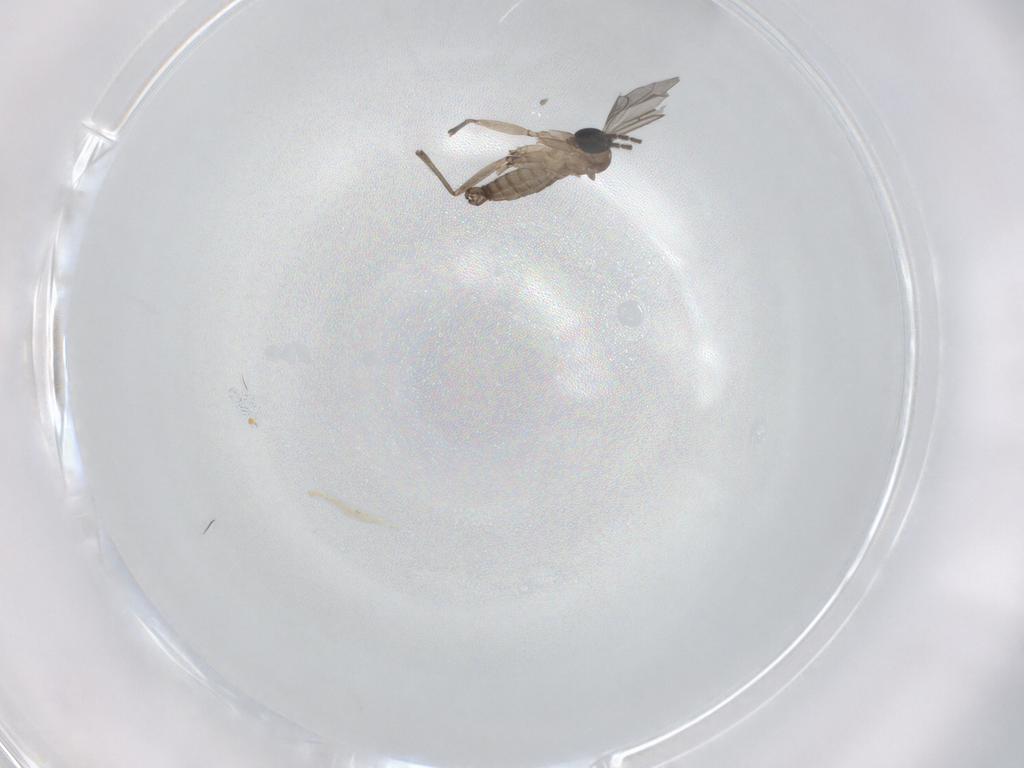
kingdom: Animalia
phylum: Arthropoda
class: Insecta
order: Diptera
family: Sciaridae
